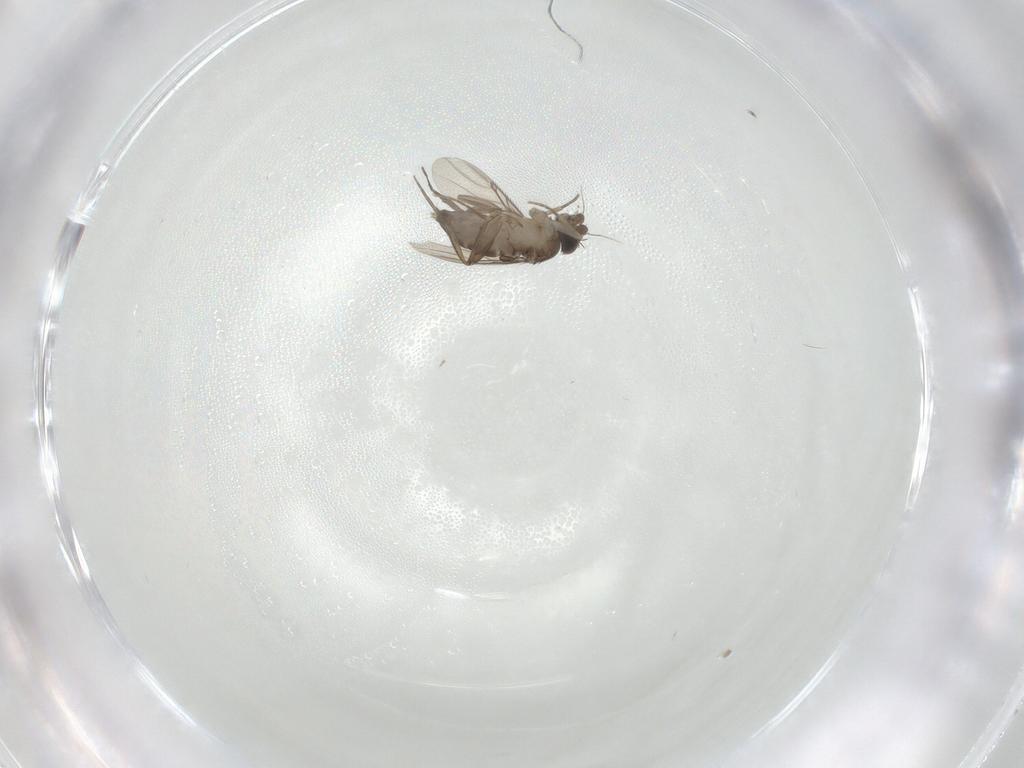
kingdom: Animalia
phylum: Arthropoda
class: Insecta
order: Diptera
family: Phoridae
